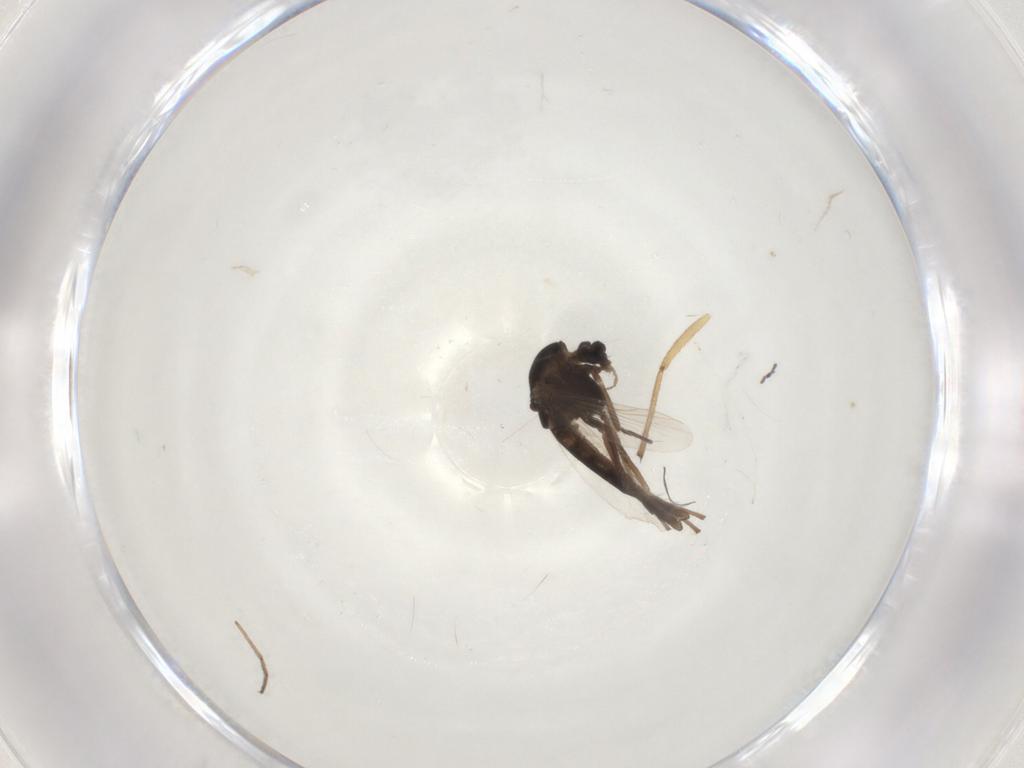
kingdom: Animalia
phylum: Arthropoda
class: Insecta
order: Diptera
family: Chironomidae
